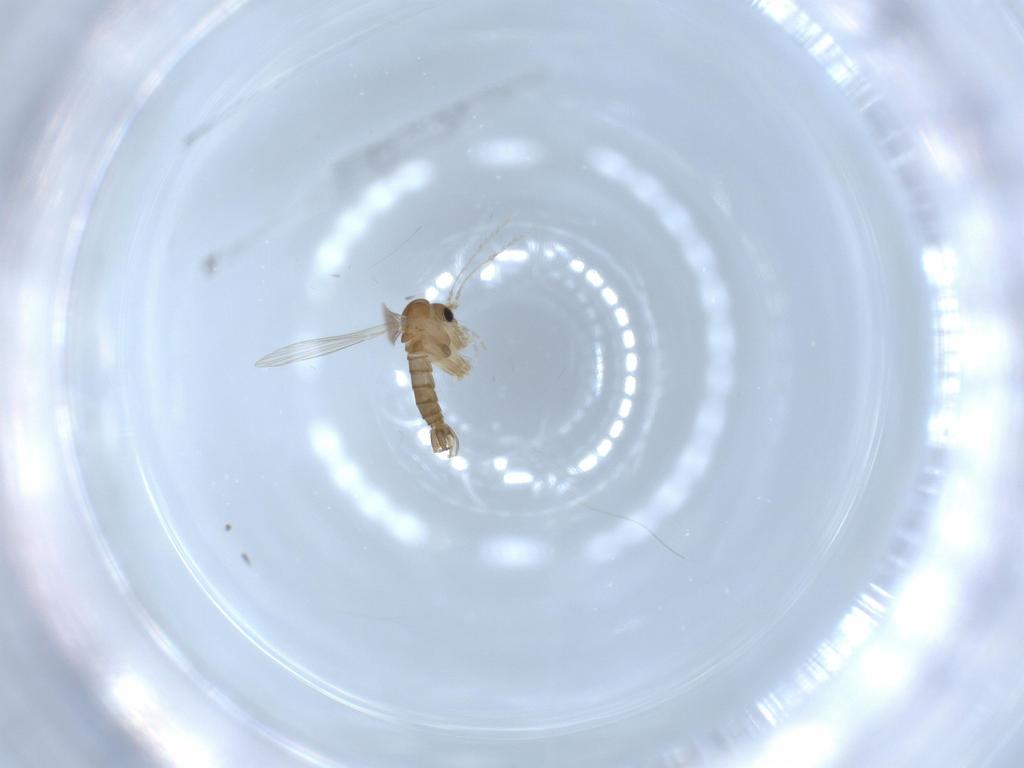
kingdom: Animalia
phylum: Arthropoda
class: Insecta
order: Diptera
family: Psychodidae
